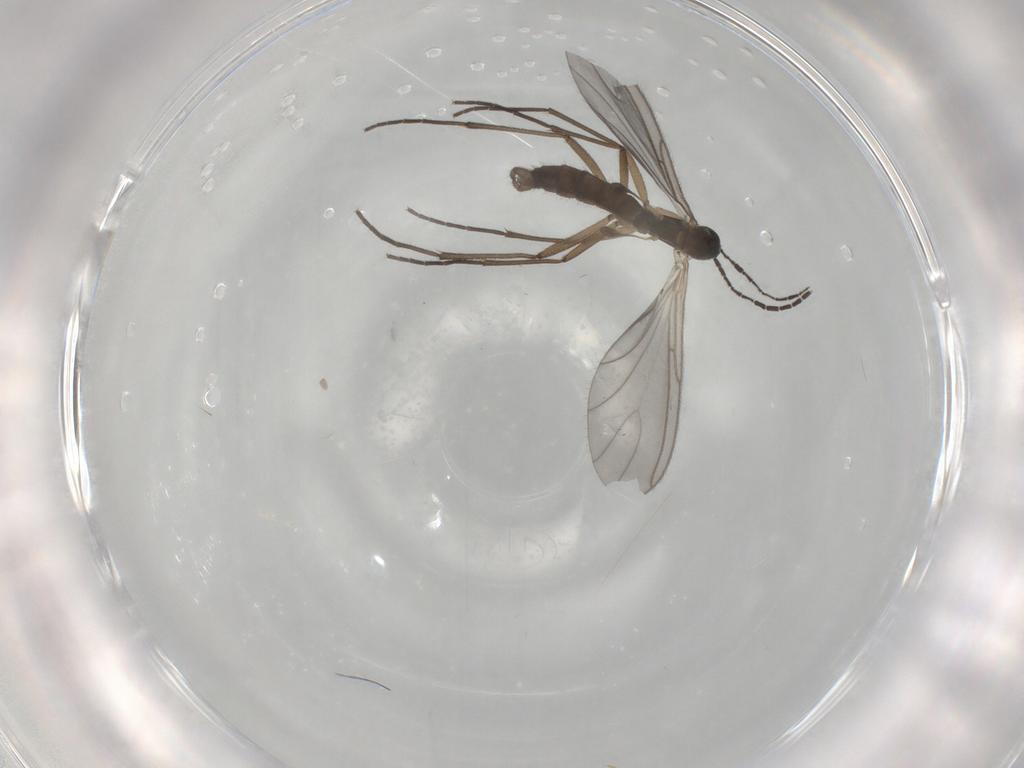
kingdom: Animalia
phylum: Arthropoda
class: Insecta
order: Diptera
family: Sciaridae
